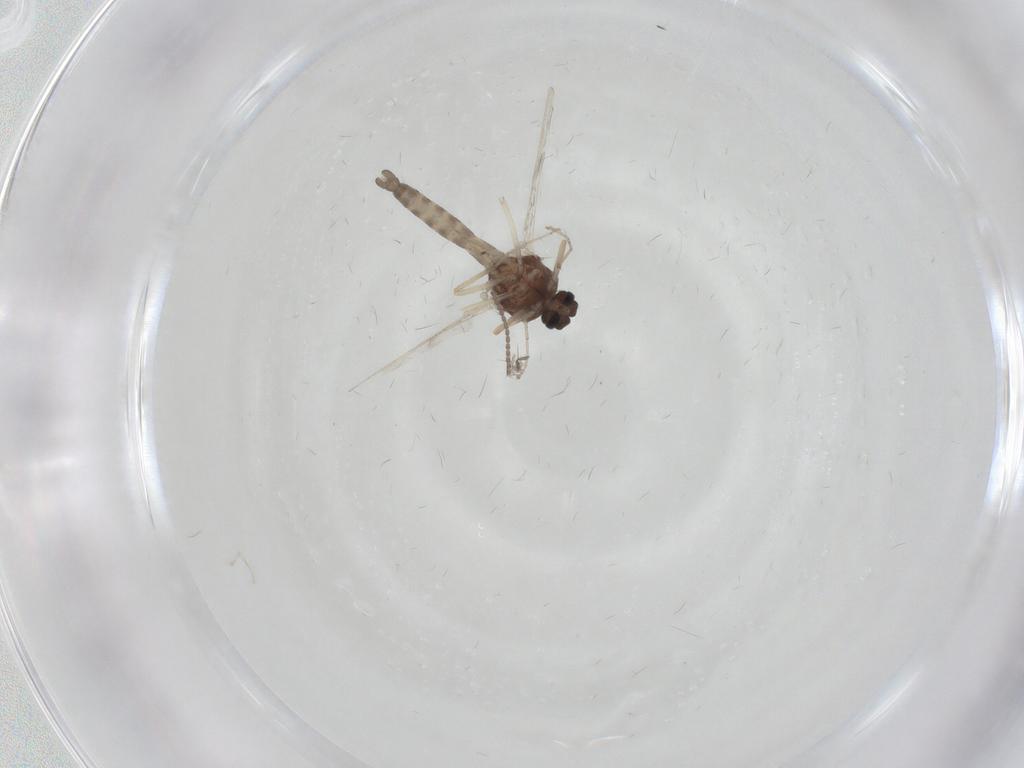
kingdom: Animalia
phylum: Arthropoda
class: Insecta
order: Diptera
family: Ceratopogonidae
